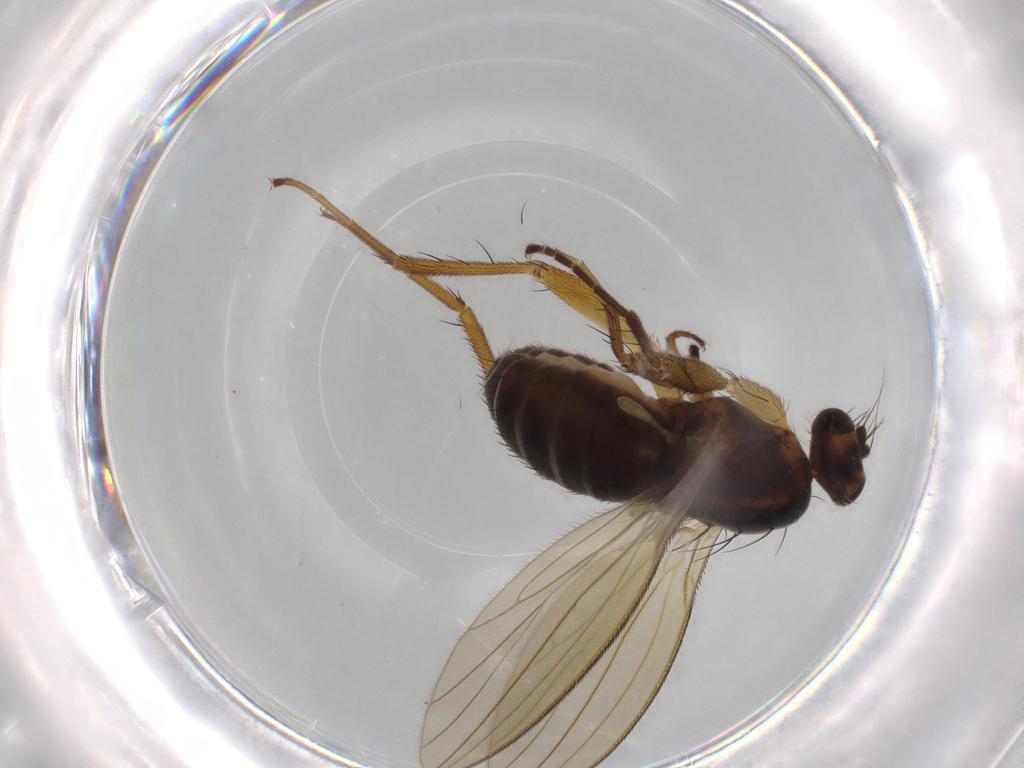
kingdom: Animalia
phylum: Arthropoda
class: Insecta
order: Diptera
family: Lonchopteridae
